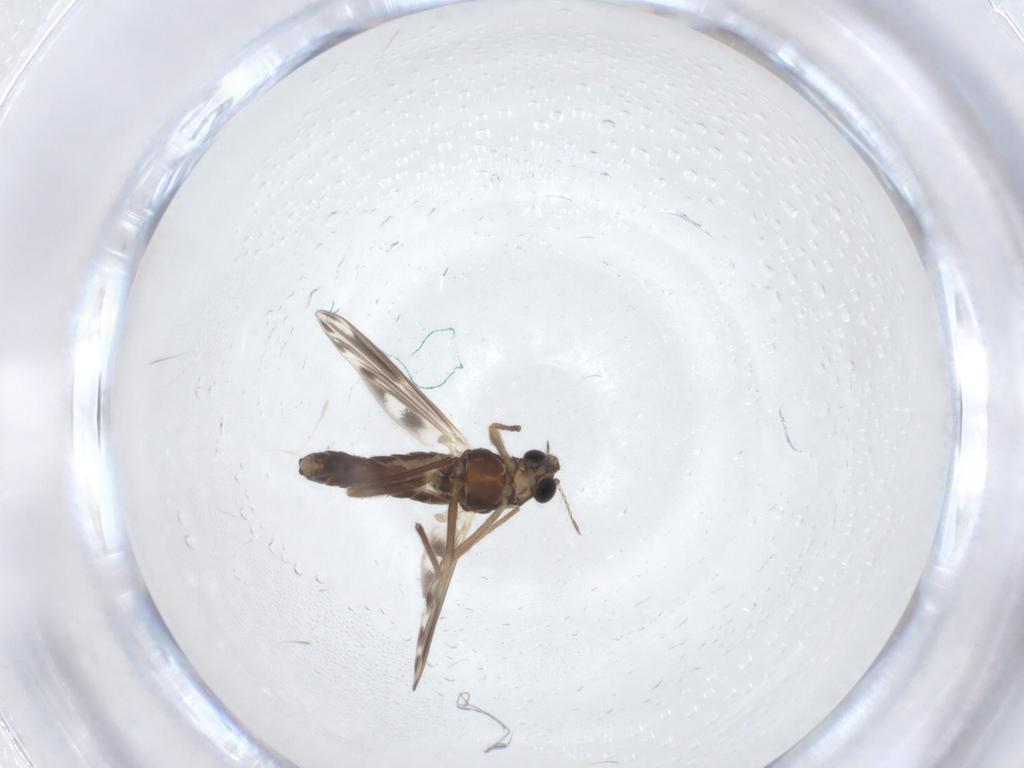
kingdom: Animalia
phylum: Arthropoda
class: Insecta
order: Diptera
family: Chironomidae
